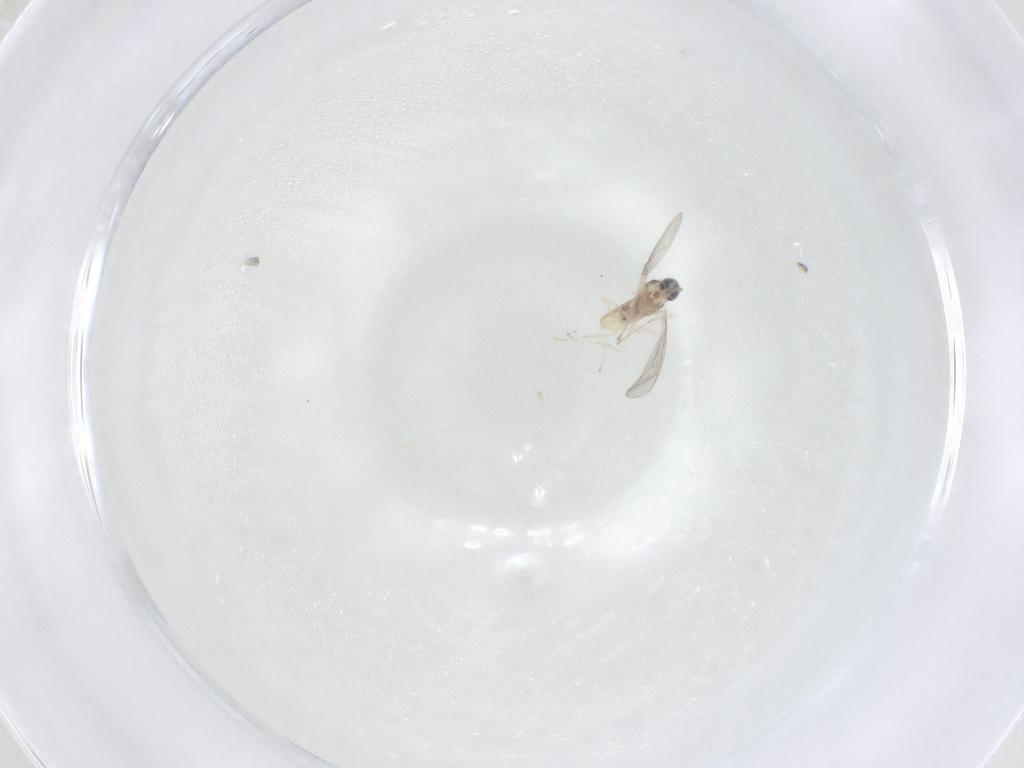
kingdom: Animalia
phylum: Arthropoda
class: Insecta
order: Diptera
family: Cecidomyiidae
